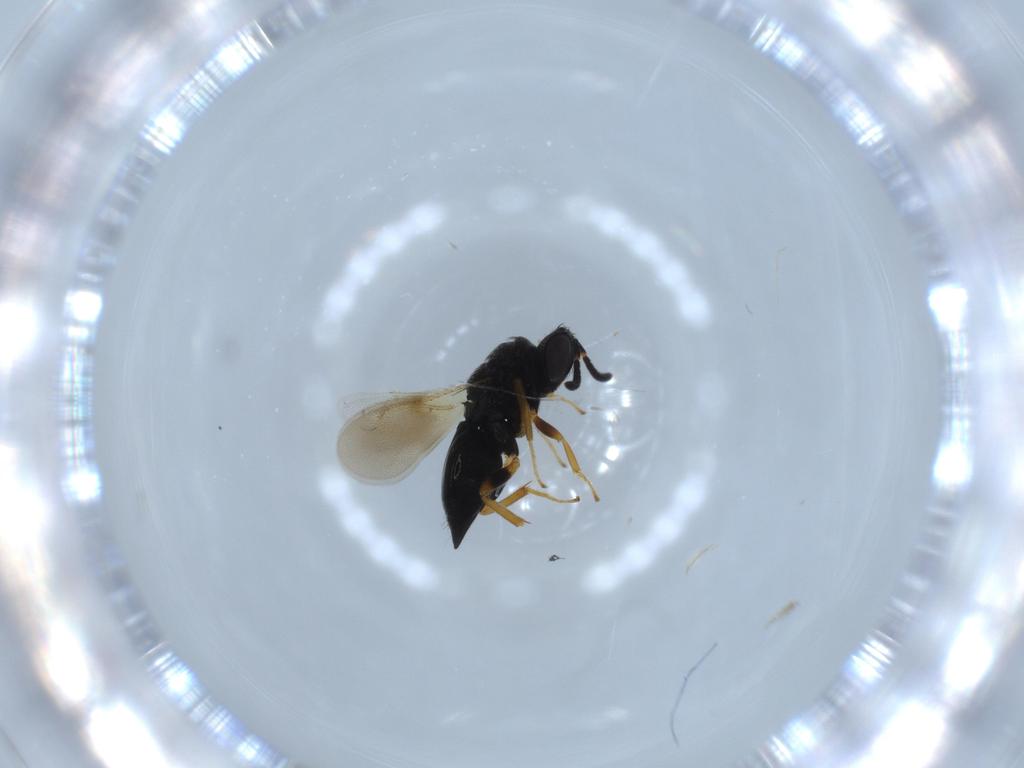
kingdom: Animalia
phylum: Arthropoda
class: Insecta
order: Hymenoptera
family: Pteromalidae
